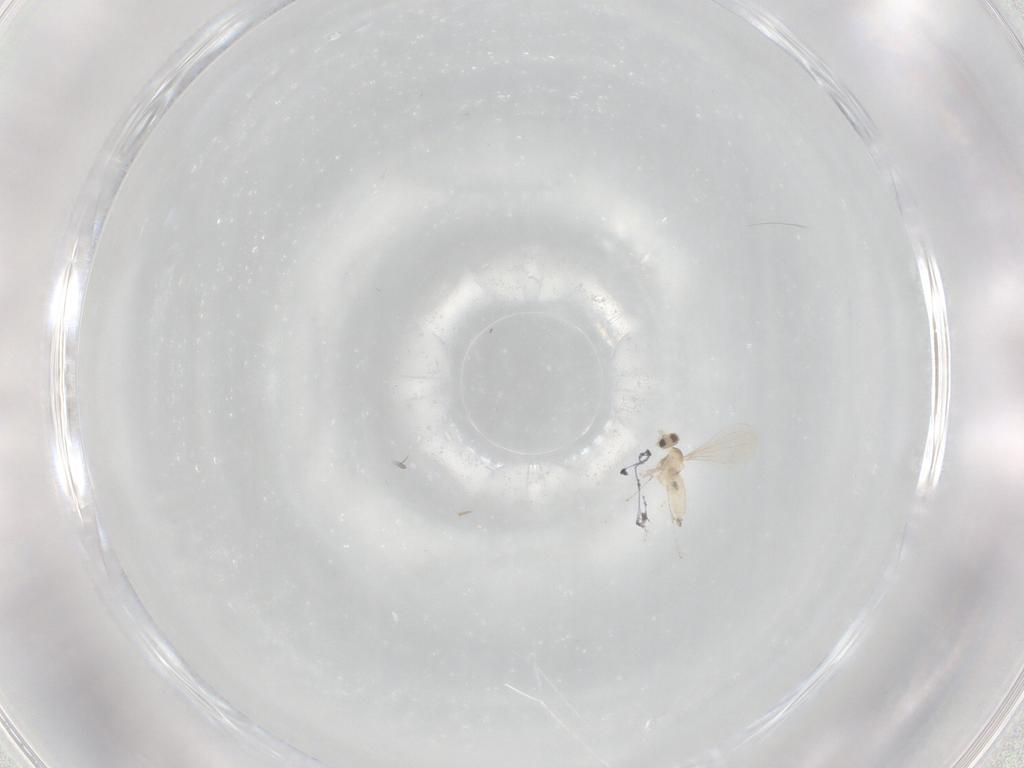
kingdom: Animalia
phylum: Arthropoda
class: Insecta
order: Diptera
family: Cecidomyiidae
